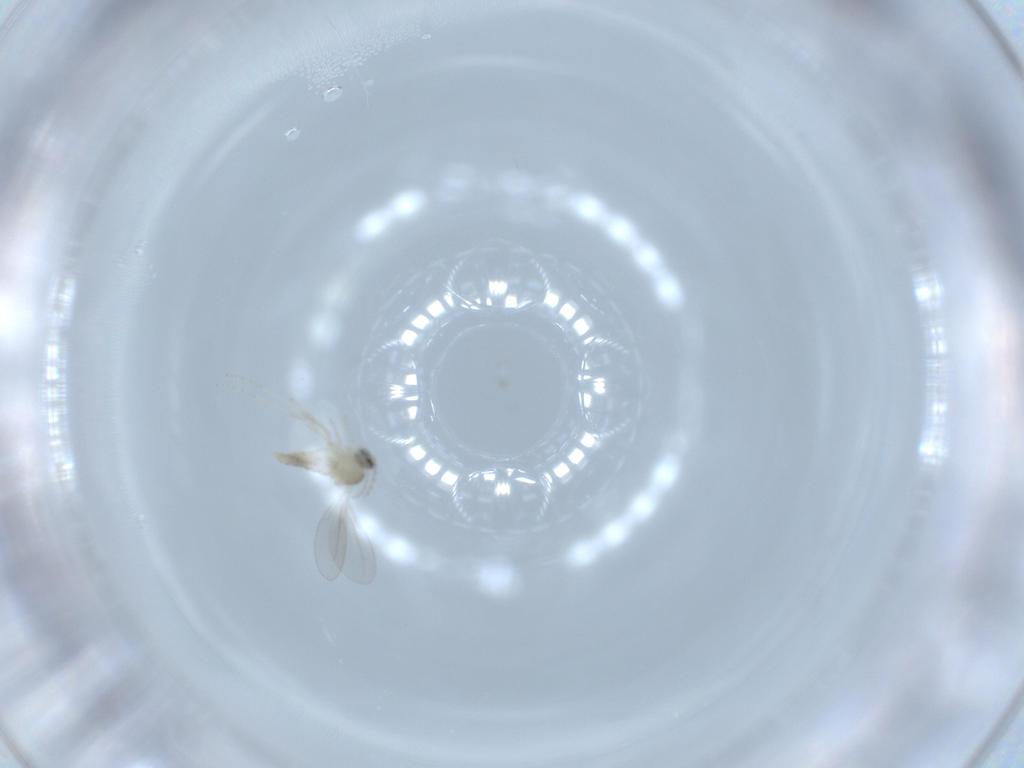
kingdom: Animalia
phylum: Arthropoda
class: Insecta
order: Diptera
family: Cecidomyiidae
